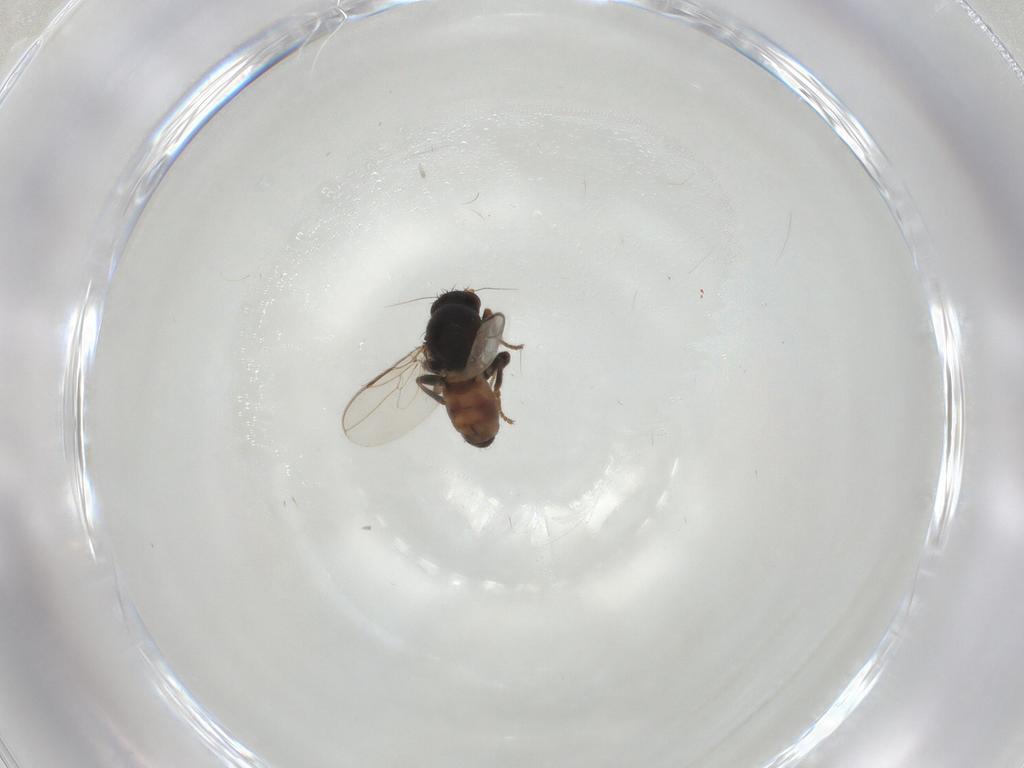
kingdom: Animalia
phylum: Arthropoda
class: Insecta
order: Diptera
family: Sphaeroceridae
